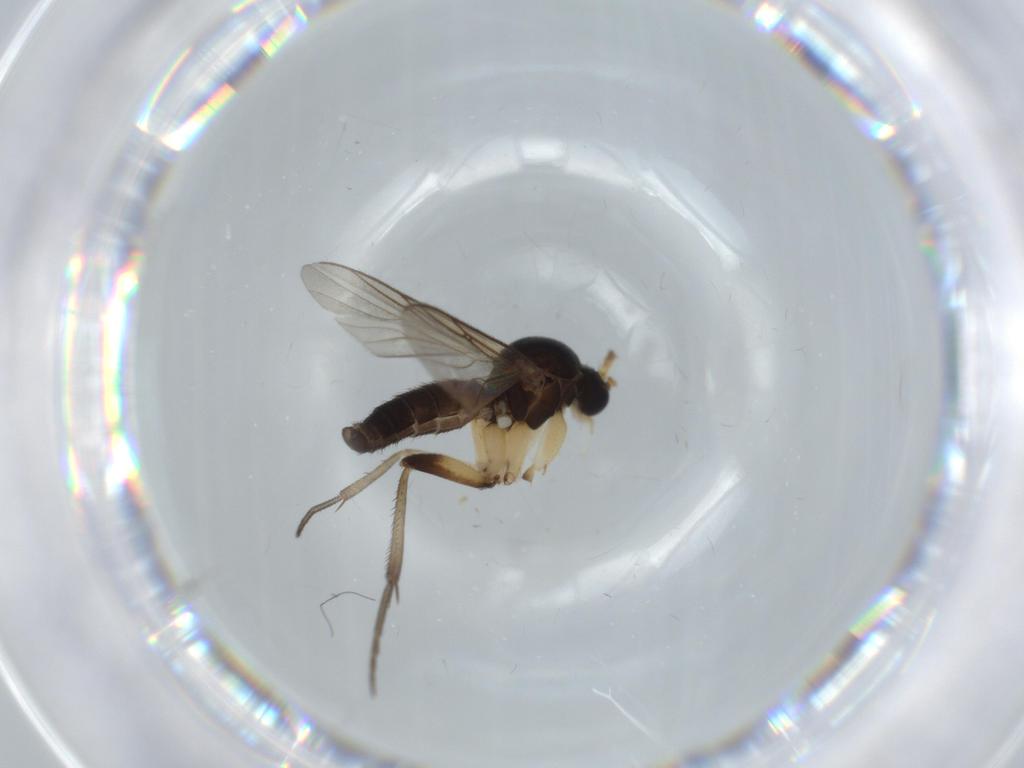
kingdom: Animalia
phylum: Arthropoda
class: Insecta
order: Diptera
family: Mycetophilidae
